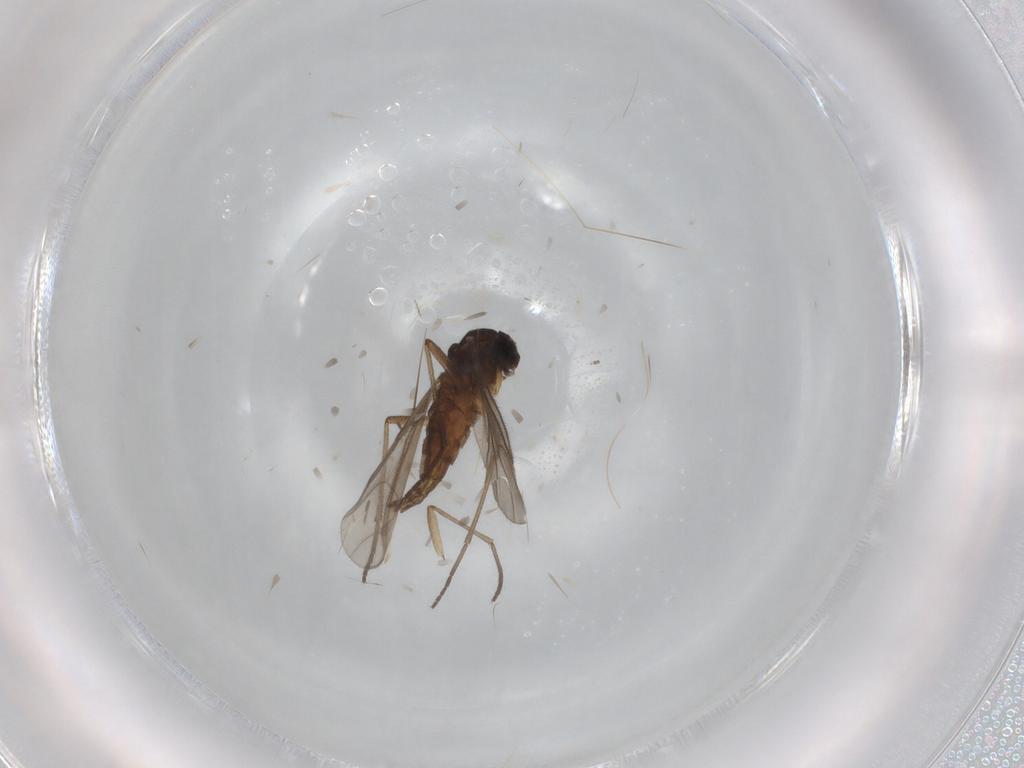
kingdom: Animalia
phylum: Arthropoda
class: Insecta
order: Diptera
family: Sciaridae
